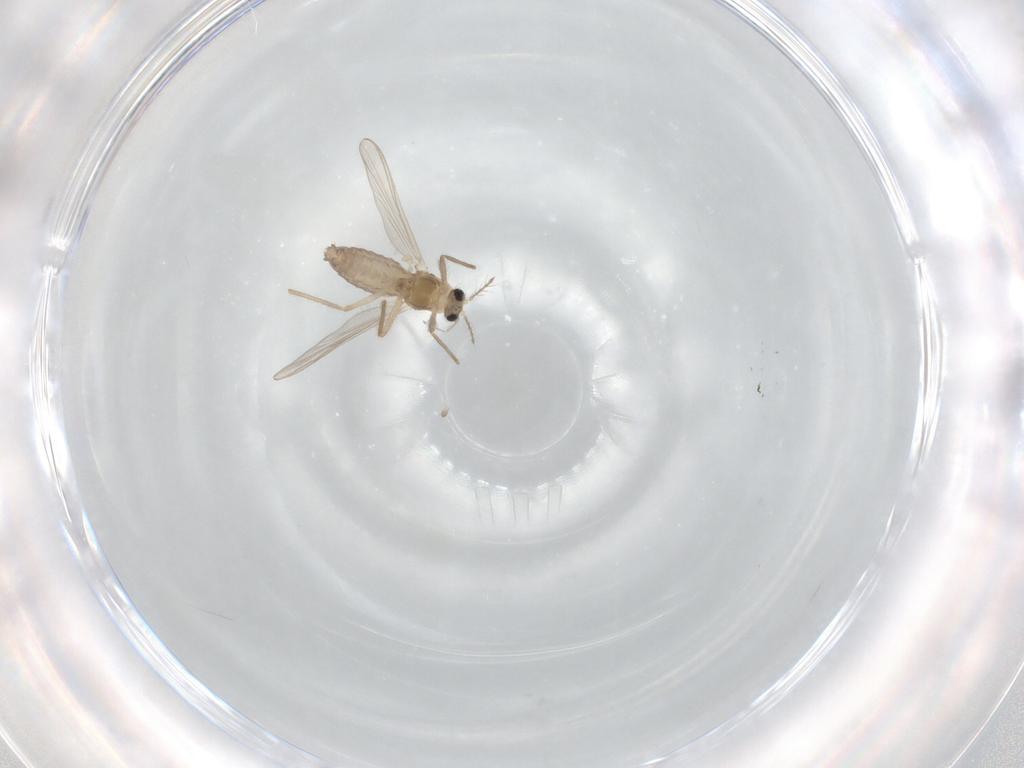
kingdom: Animalia
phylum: Arthropoda
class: Insecta
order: Diptera
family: Chironomidae
